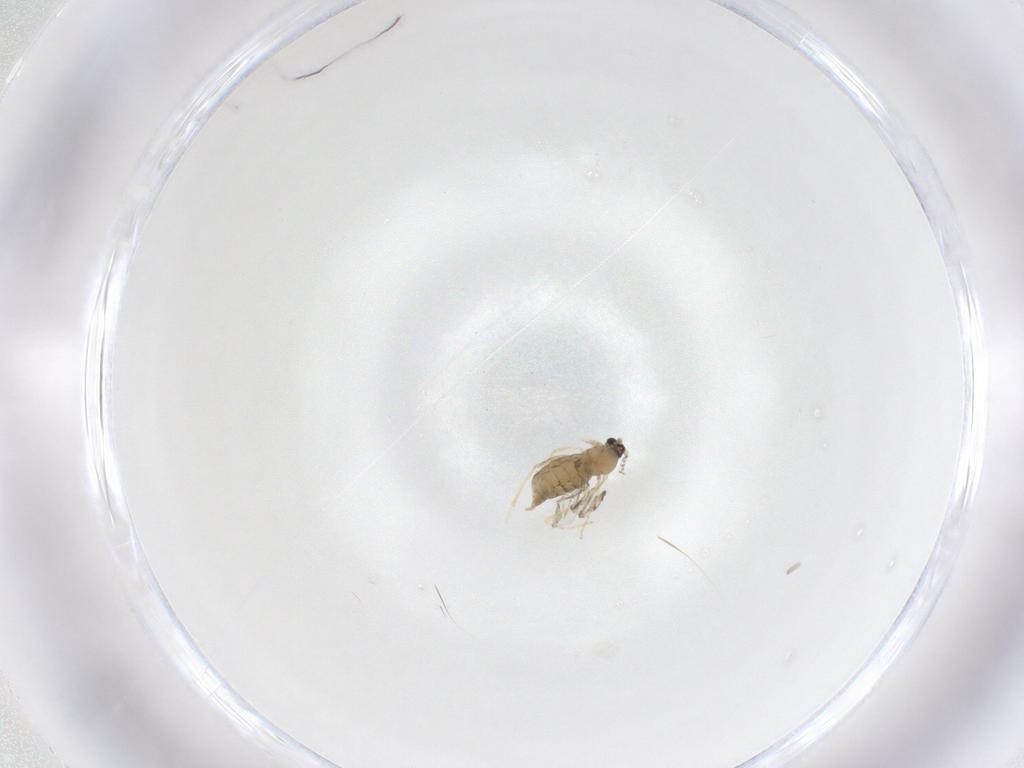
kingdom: Animalia
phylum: Arthropoda
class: Insecta
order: Diptera
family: Cecidomyiidae
